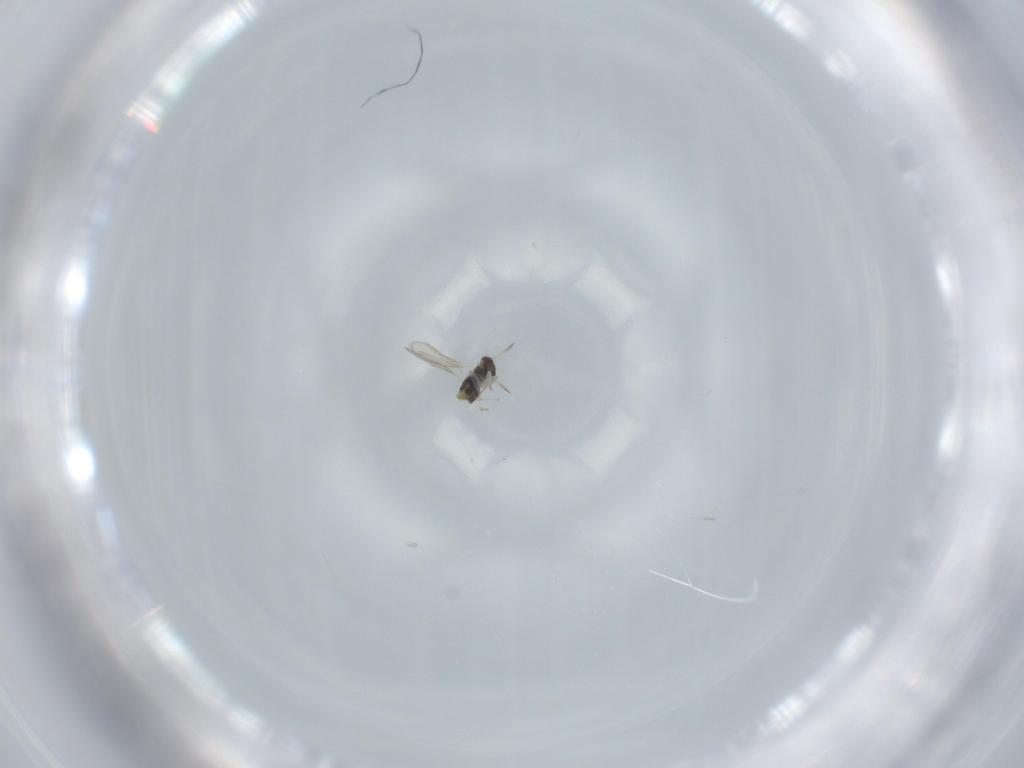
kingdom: Animalia
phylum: Arthropoda
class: Insecta
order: Hymenoptera
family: Aphelinidae
